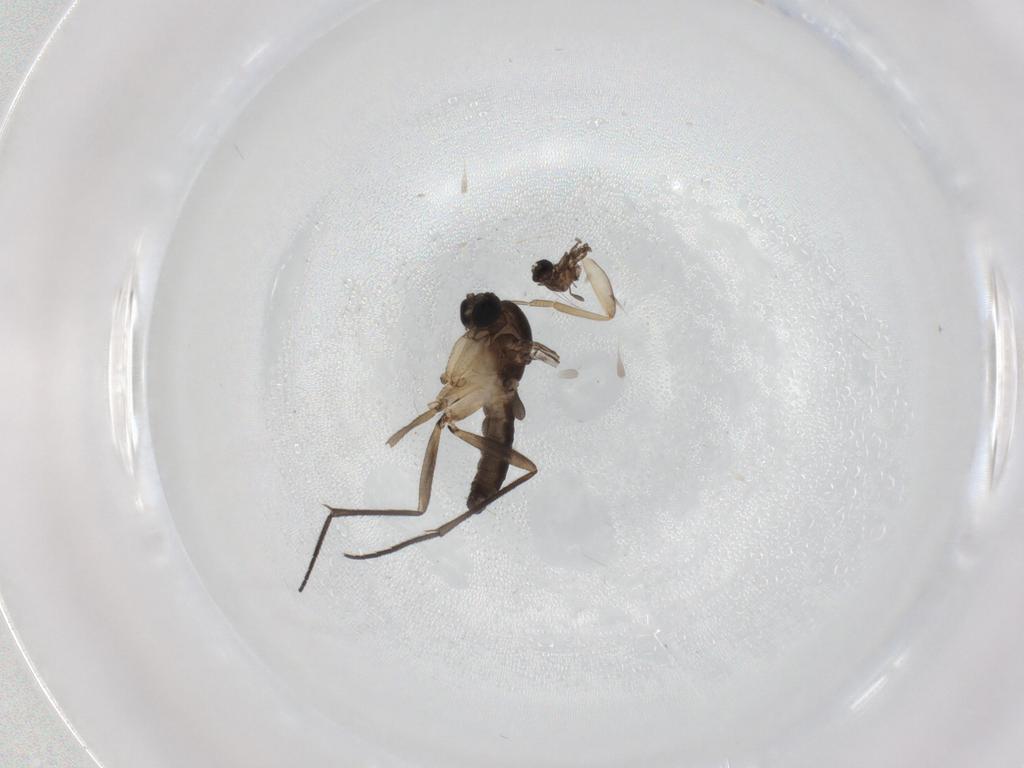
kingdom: Animalia
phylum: Arthropoda
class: Insecta
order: Diptera
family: Sciaridae
